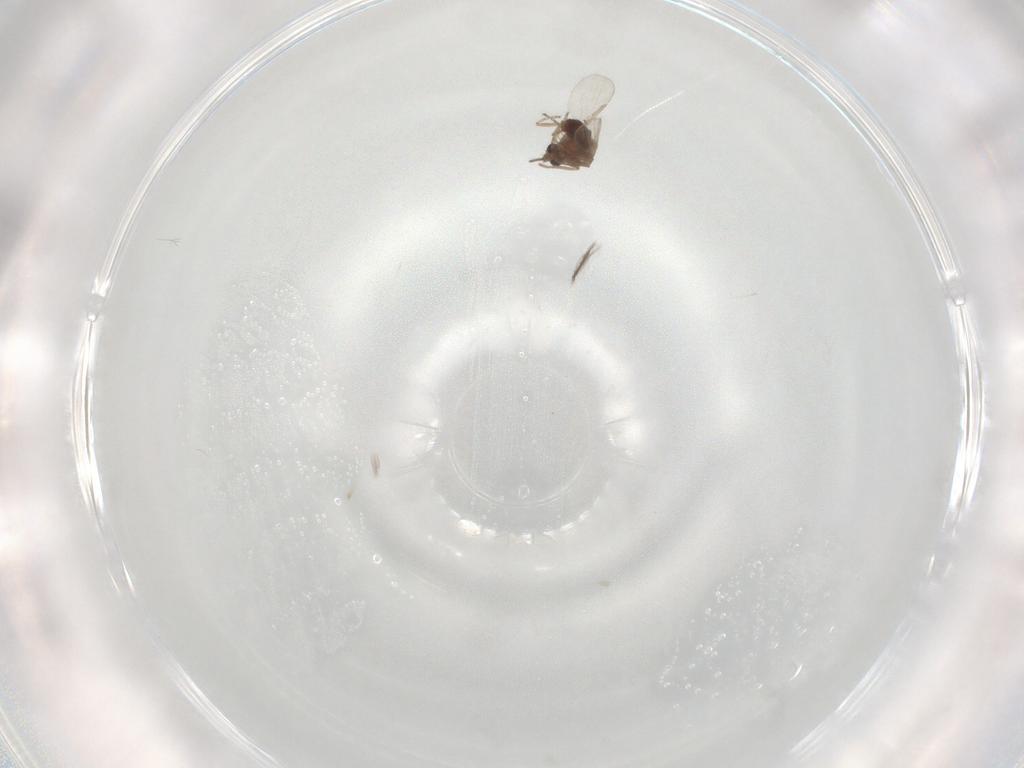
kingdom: Animalia
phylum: Arthropoda
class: Insecta
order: Diptera
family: Ceratopogonidae
